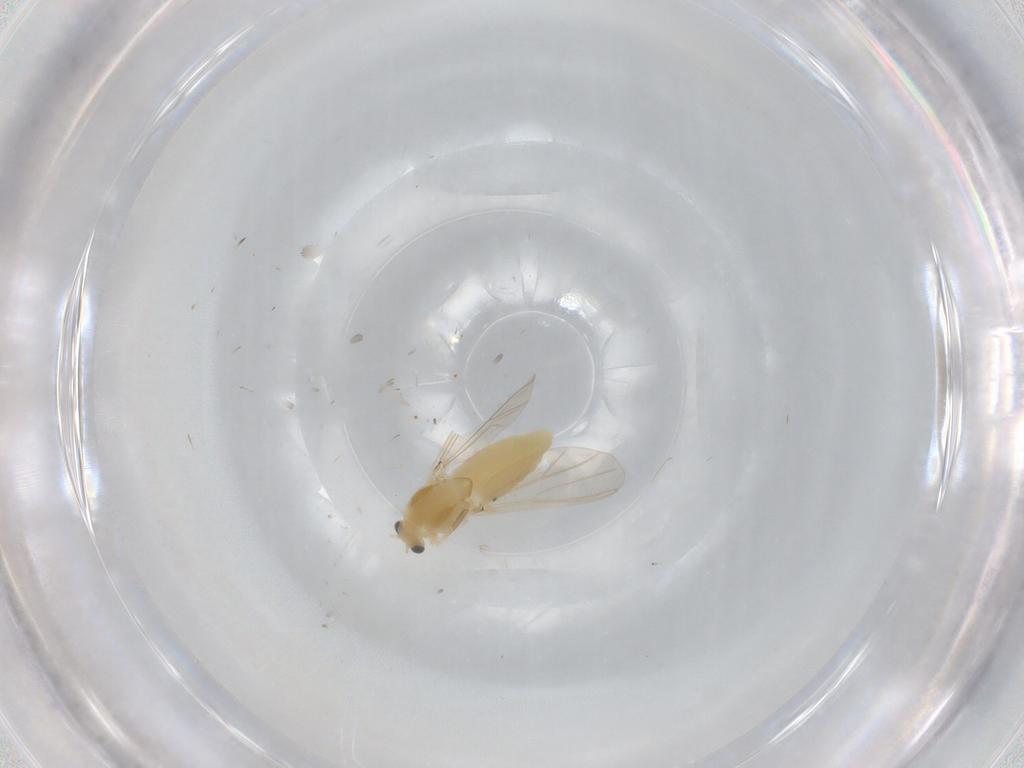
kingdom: Animalia
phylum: Arthropoda
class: Insecta
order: Diptera
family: Chironomidae
